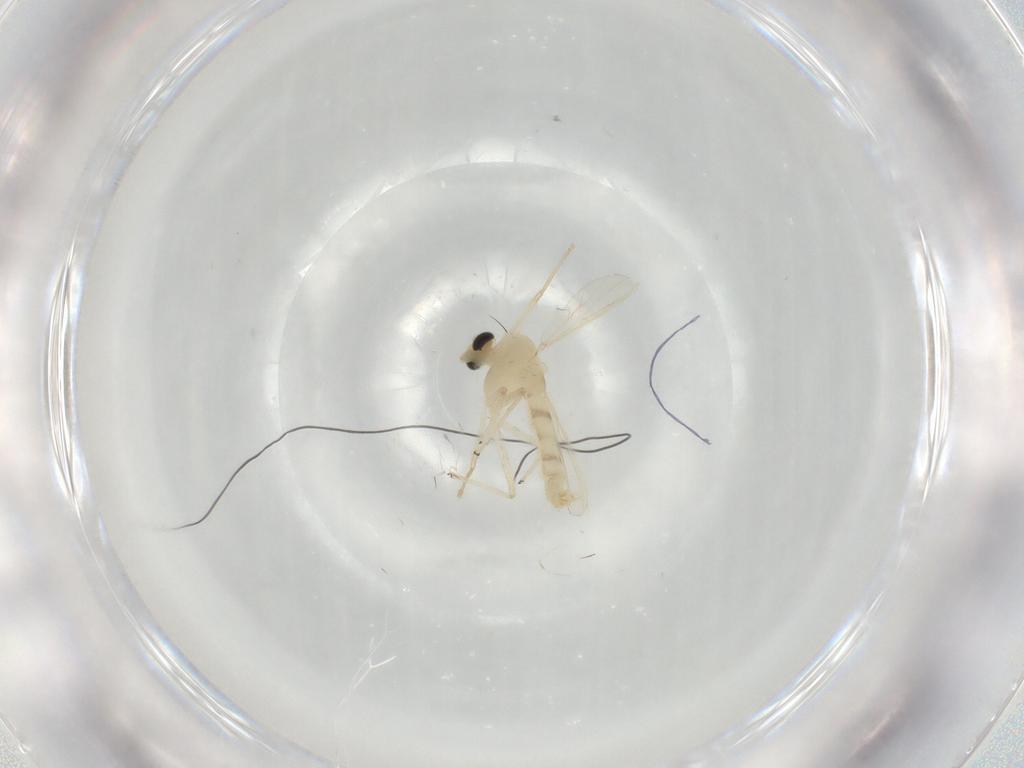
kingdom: Animalia
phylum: Arthropoda
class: Insecta
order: Diptera
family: Chironomidae
